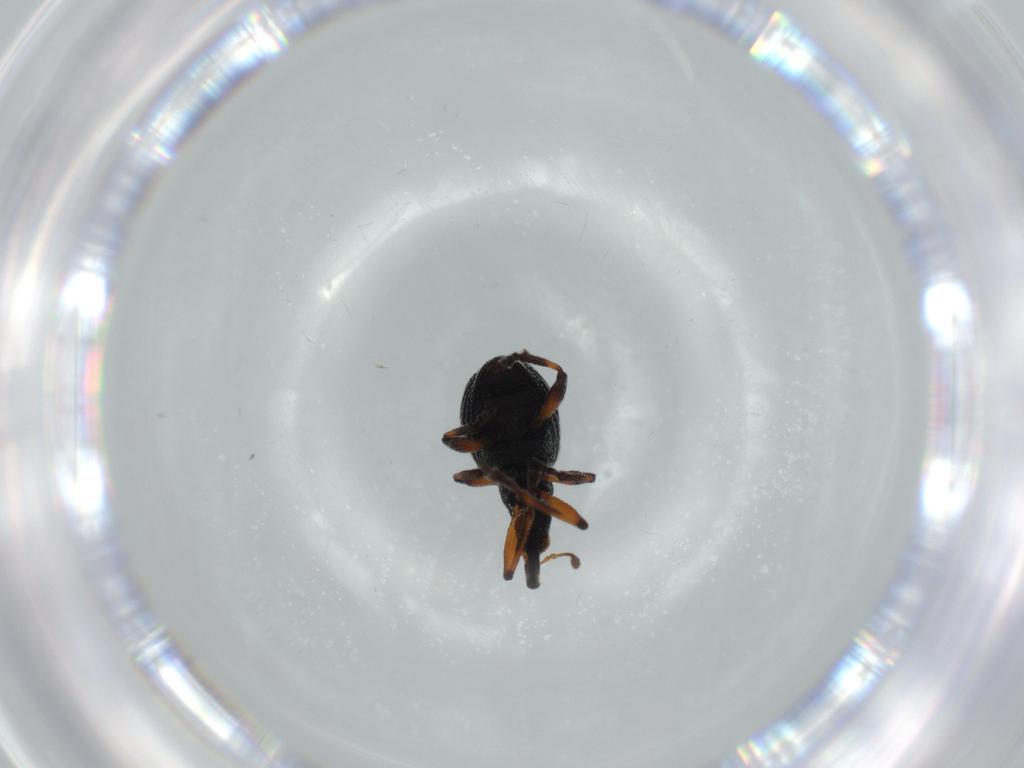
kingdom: Animalia
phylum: Arthropoda
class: Insecta
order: Coleoptera
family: Brentidae
